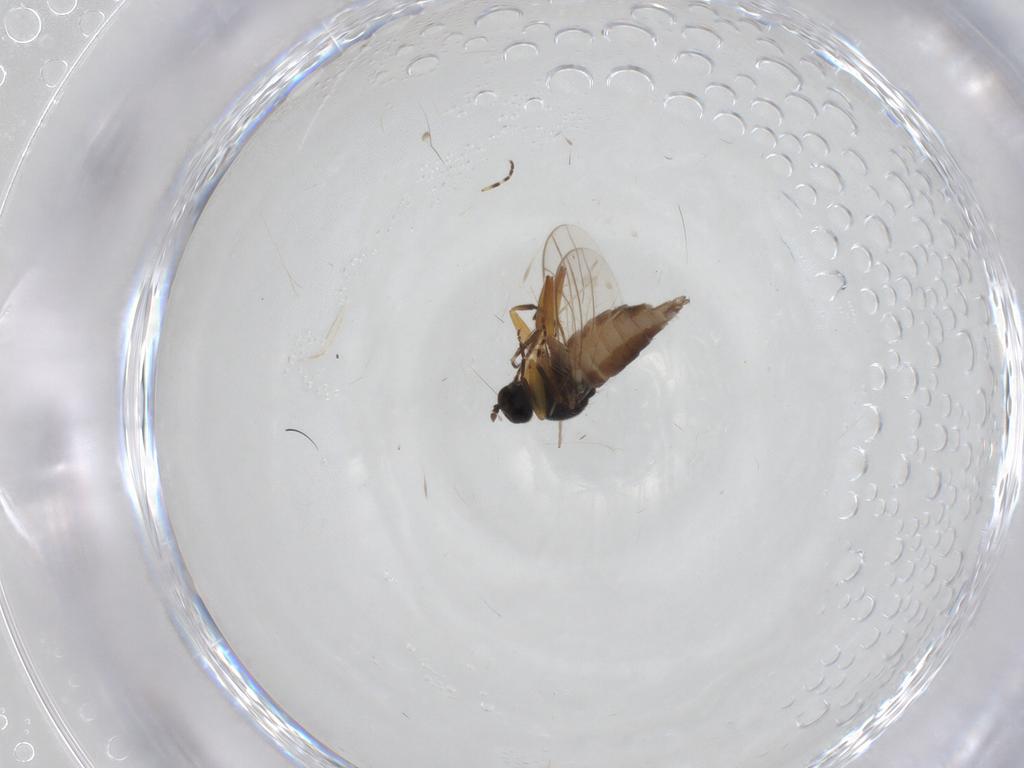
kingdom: Animalia
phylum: Arthropoda
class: Insecta
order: Diptera
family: Hybotidae
